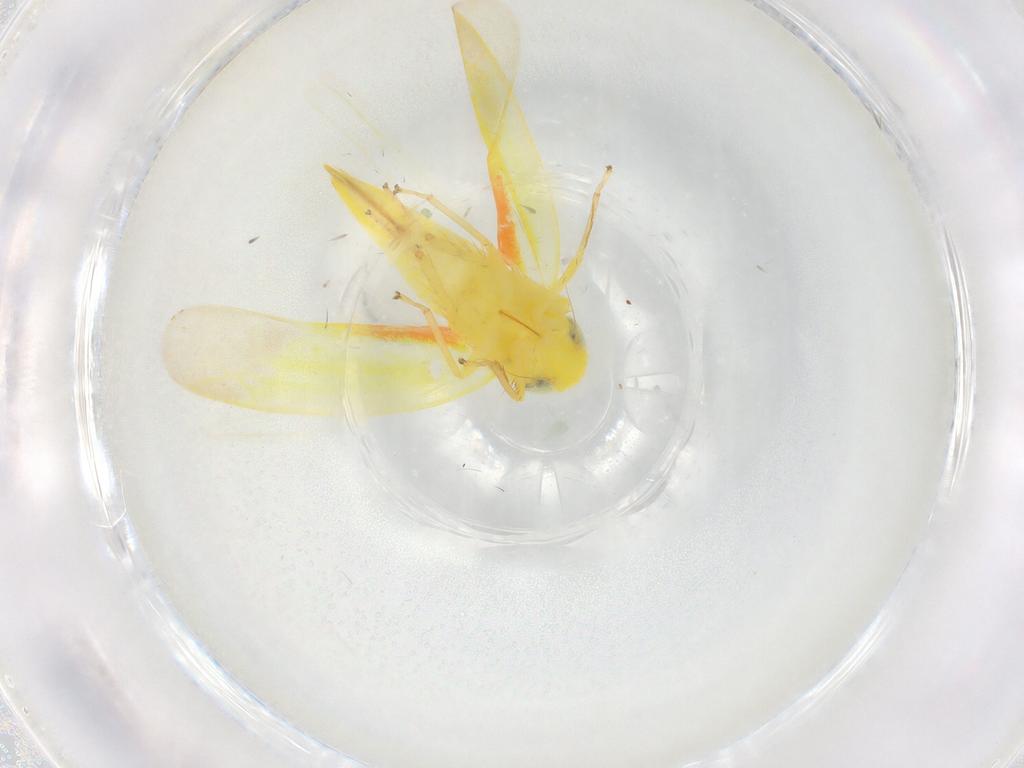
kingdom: Animalia
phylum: Arthropoda
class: Insecta
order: Hemiptera
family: Cicadellidae
